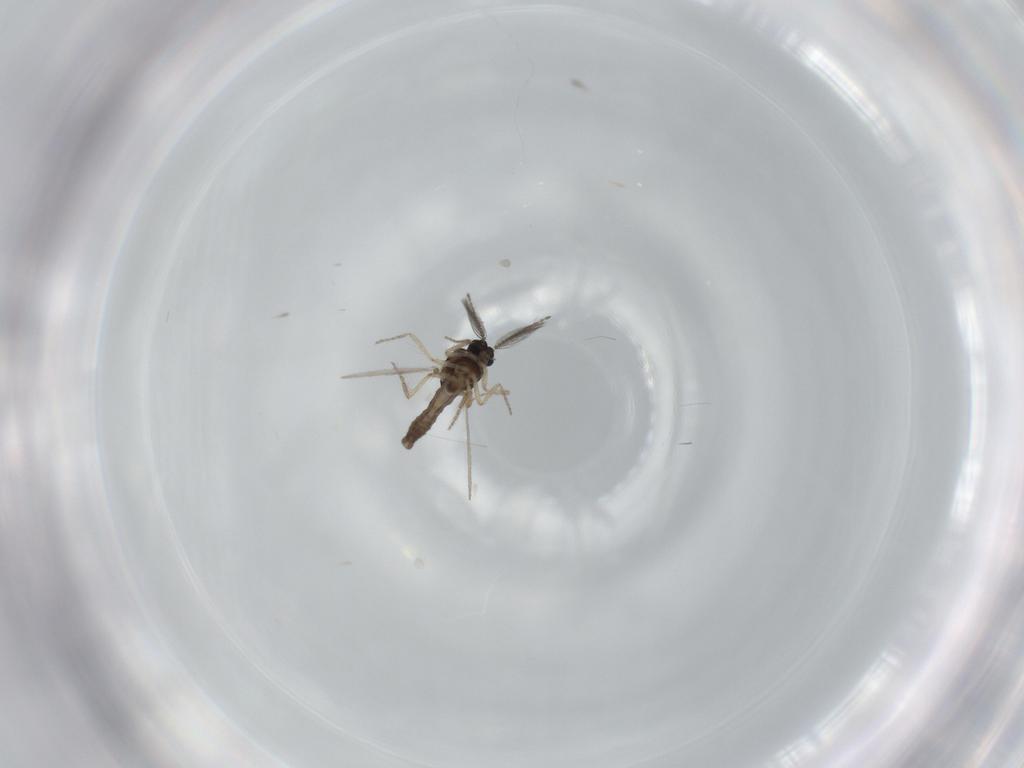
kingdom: Animalia
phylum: Arthropoda
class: Insecta
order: Diptera
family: Ceratopogonidae
